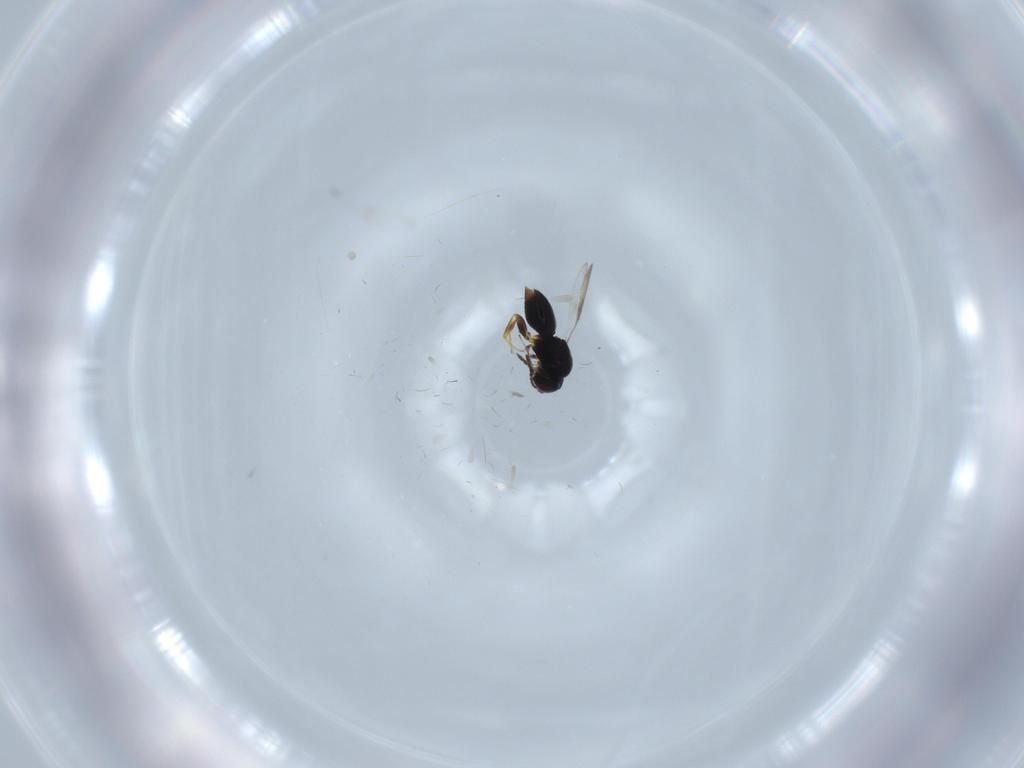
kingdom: Animalia
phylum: Arthropoda
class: Insecta
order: Hymenoptera
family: Ceraphronidae
